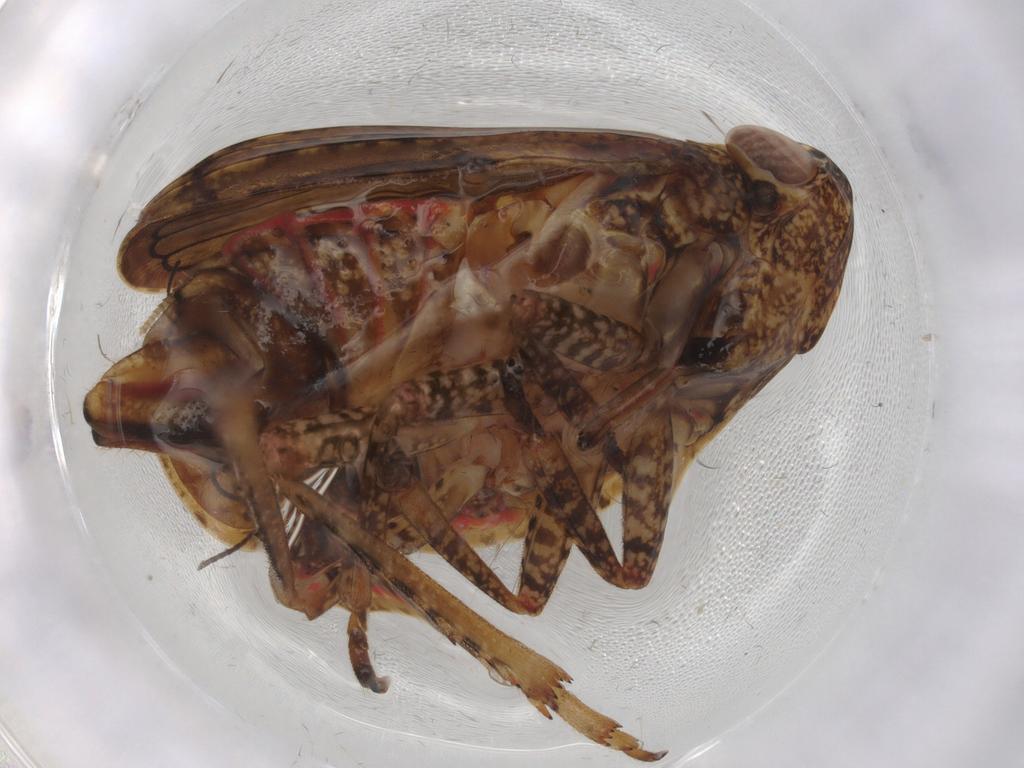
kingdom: Animalia
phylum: Arthropoda
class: Insecta
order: Hemiptera
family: Tropiduchidae
